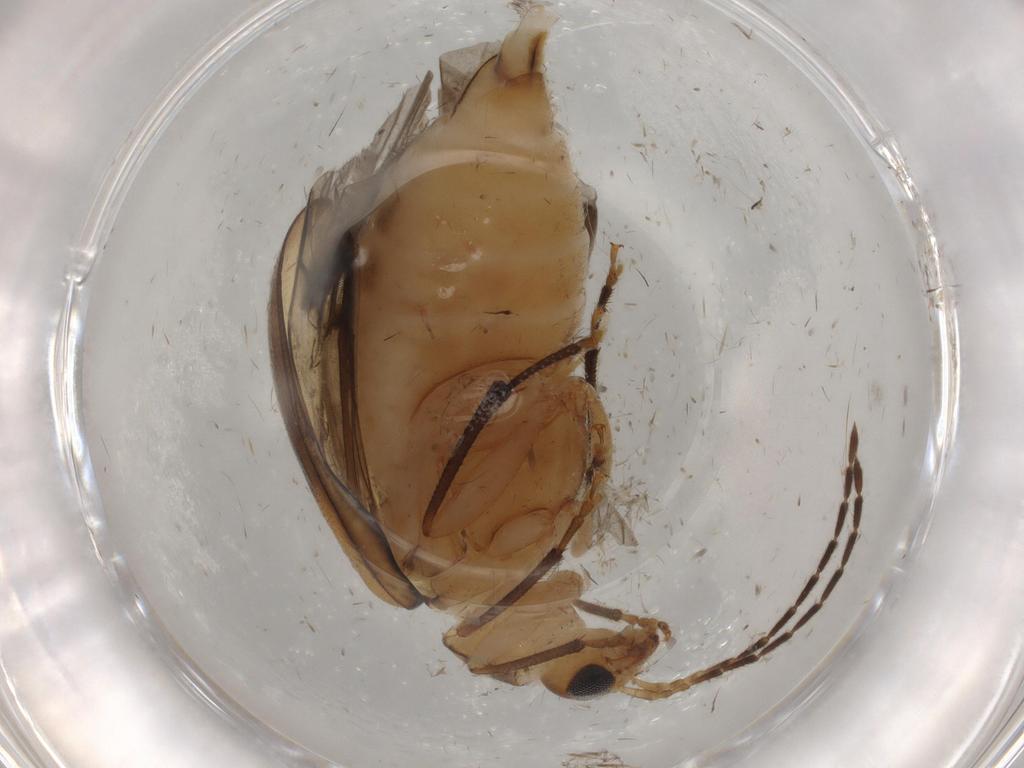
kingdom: Animalia
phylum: Arthropoda
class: Insecta
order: Coleoptera
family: Chrysomelidae
